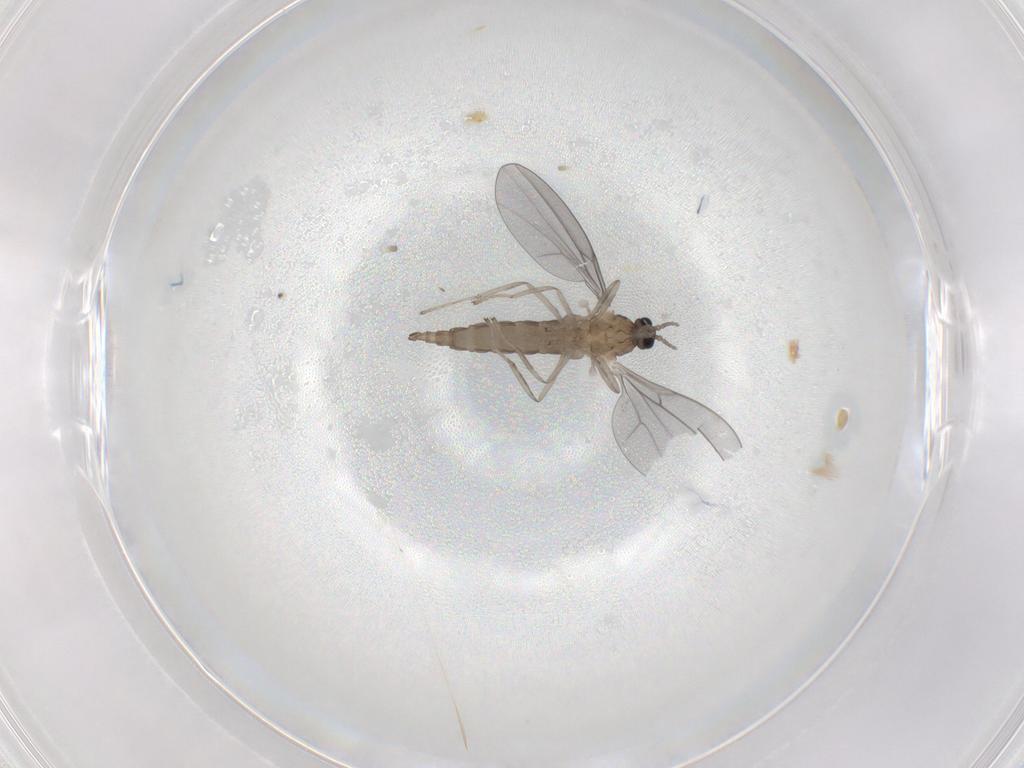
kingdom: Animalia
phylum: Arthropoda
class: Insecta
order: Diptera
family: Cecidomyiidae
